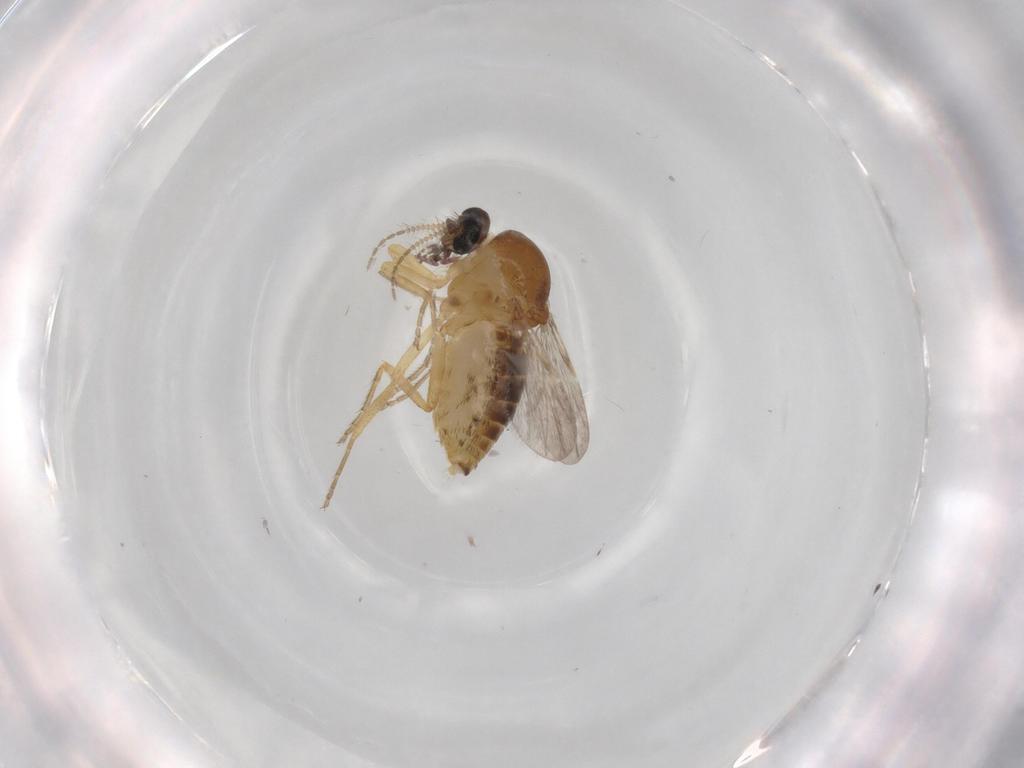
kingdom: Animalia
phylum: Arthropoda
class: Insecta
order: Diptera
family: Ceratopogonidae
